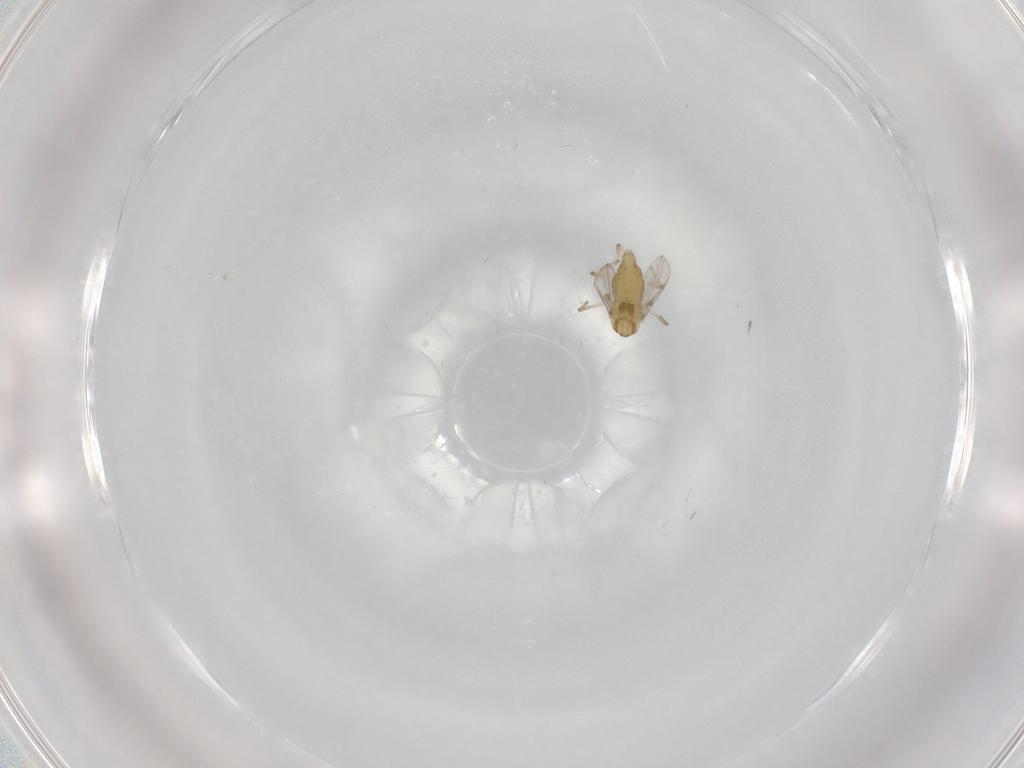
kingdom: Animalia
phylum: Arthropoda
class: Insecta
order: Diptera
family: Chironomidae
